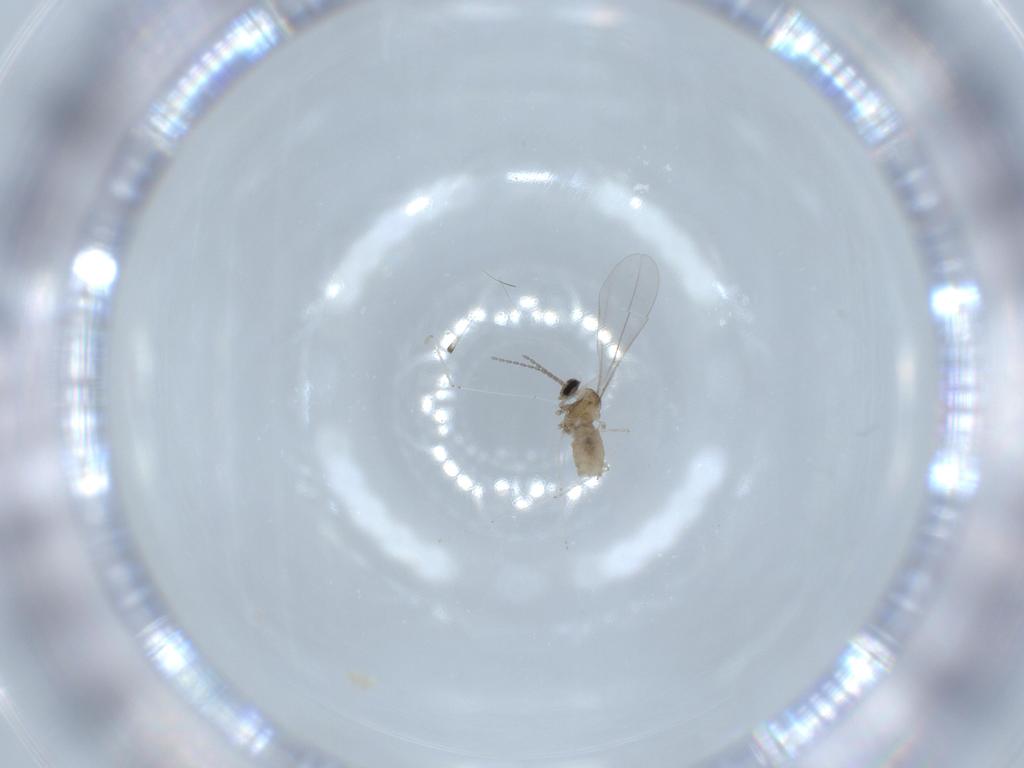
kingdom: Animalia
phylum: Arthropoda
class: Insecta
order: Diptera
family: Cecidomyiidae
